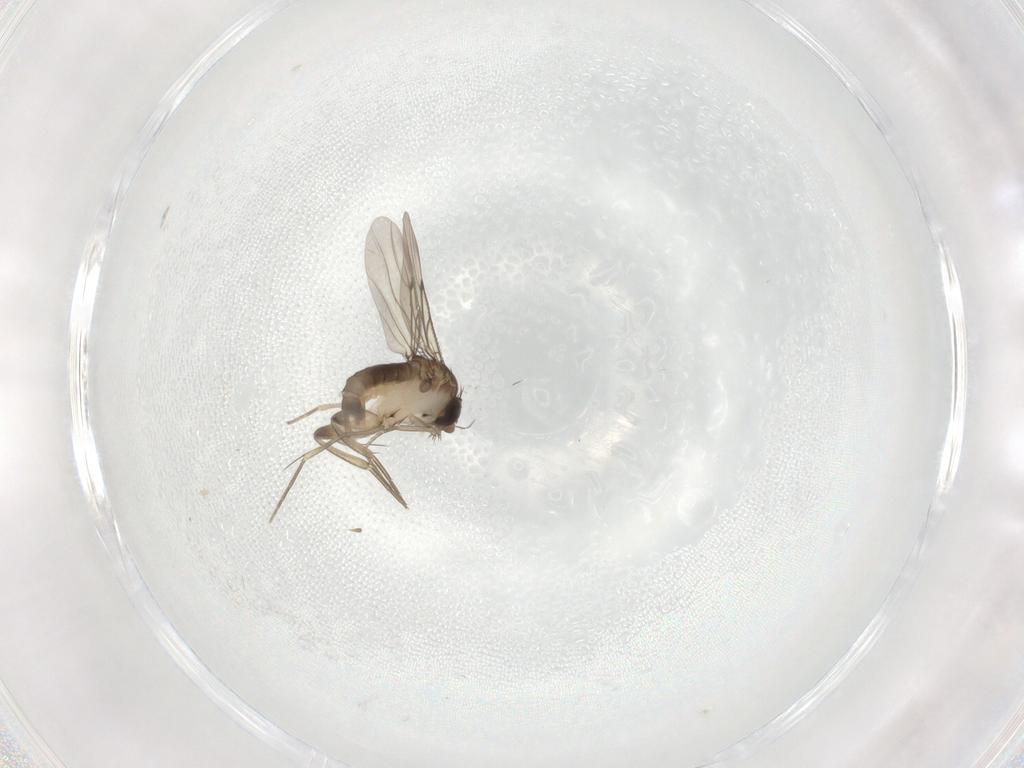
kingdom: Animalia
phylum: Arthropoda
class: Insecta
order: Diptera
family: Phoridae
